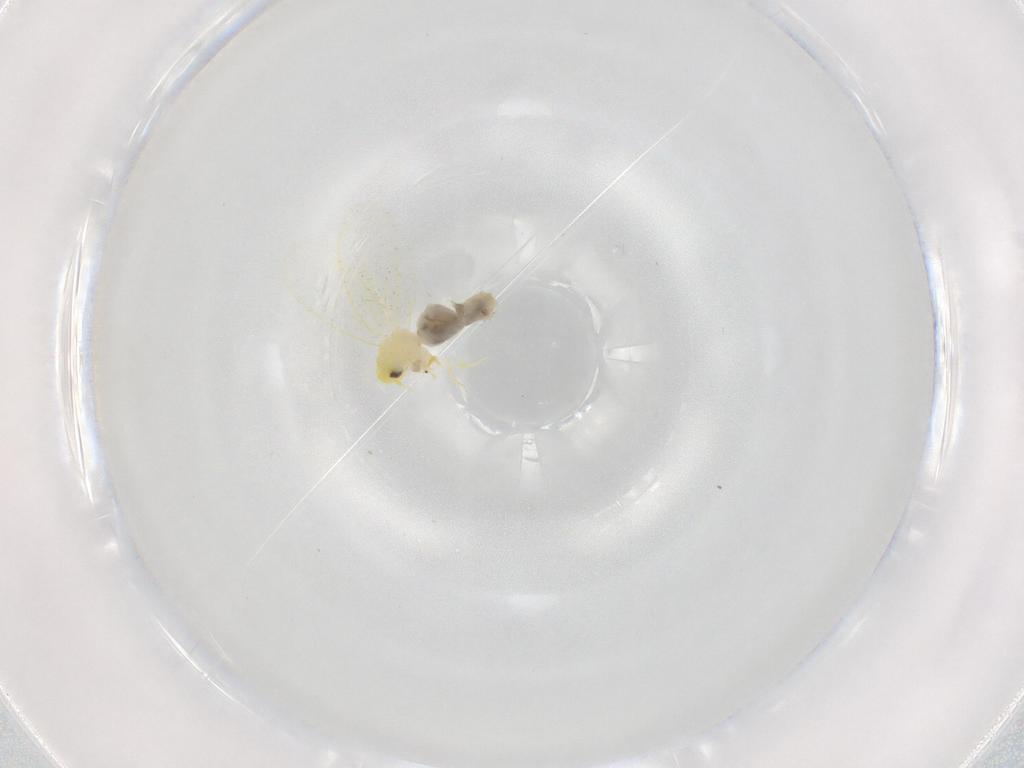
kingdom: Animalia
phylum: Arthropoda
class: Insecta
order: Hemiptera
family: Aleyrodidae
